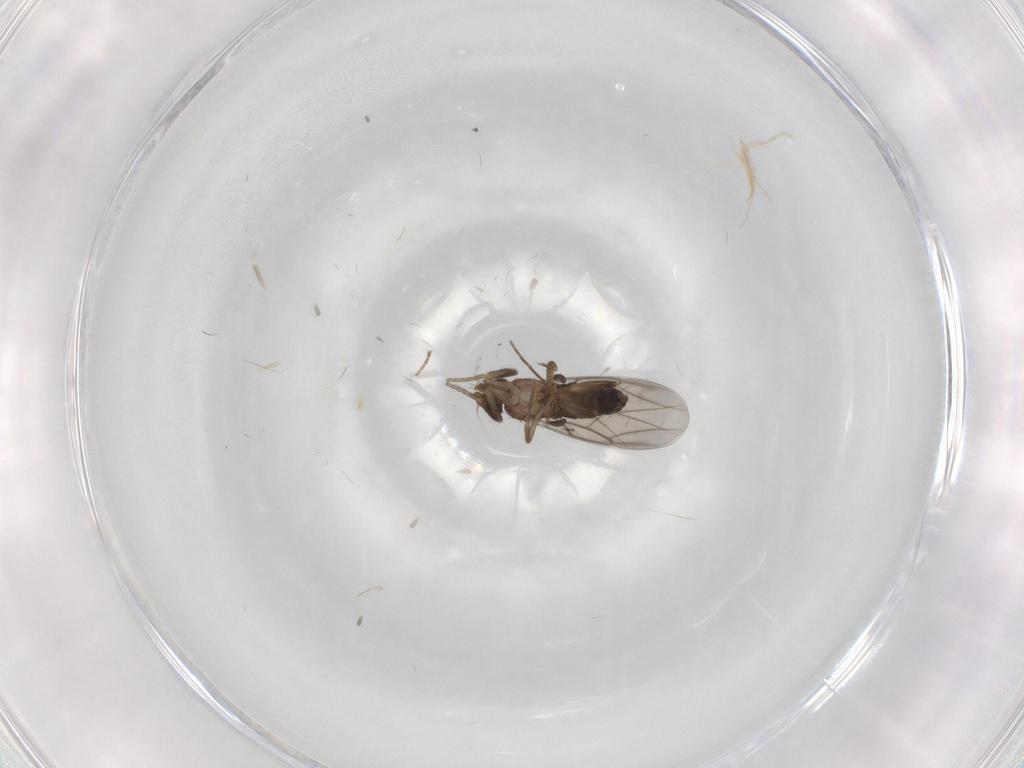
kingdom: Animalia
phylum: Arthropoda
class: Insecta
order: Diptera
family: Phoridae
